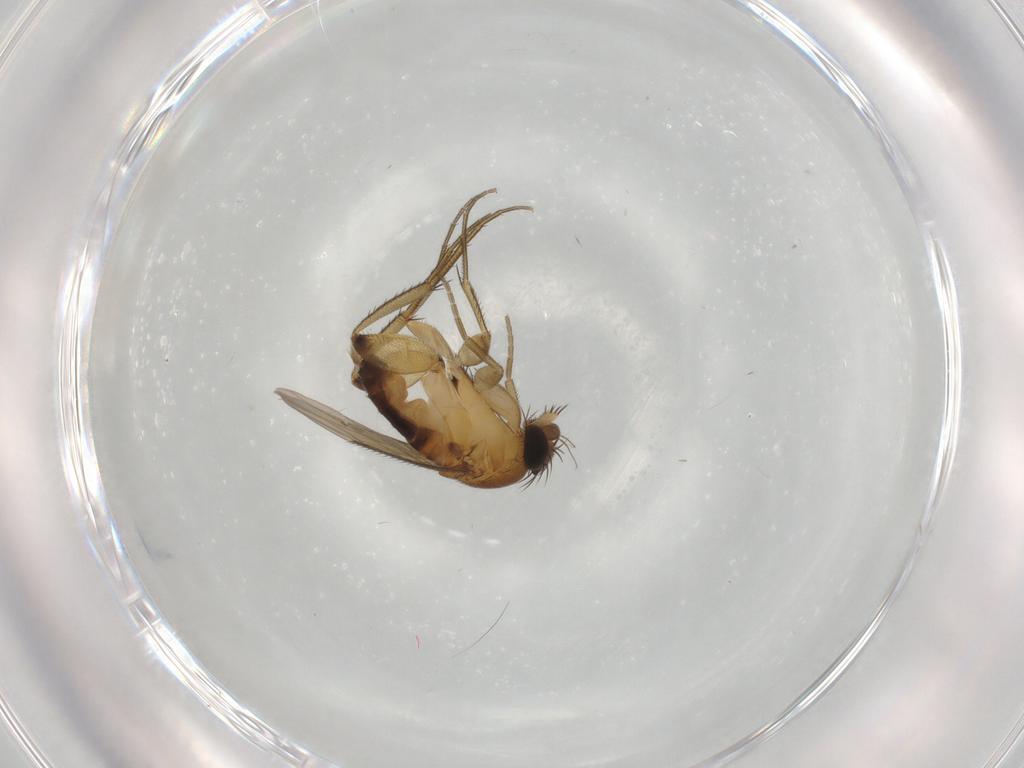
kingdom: Animalia
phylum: Arthropoda
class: Insecta
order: Diptera
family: Phoridae
